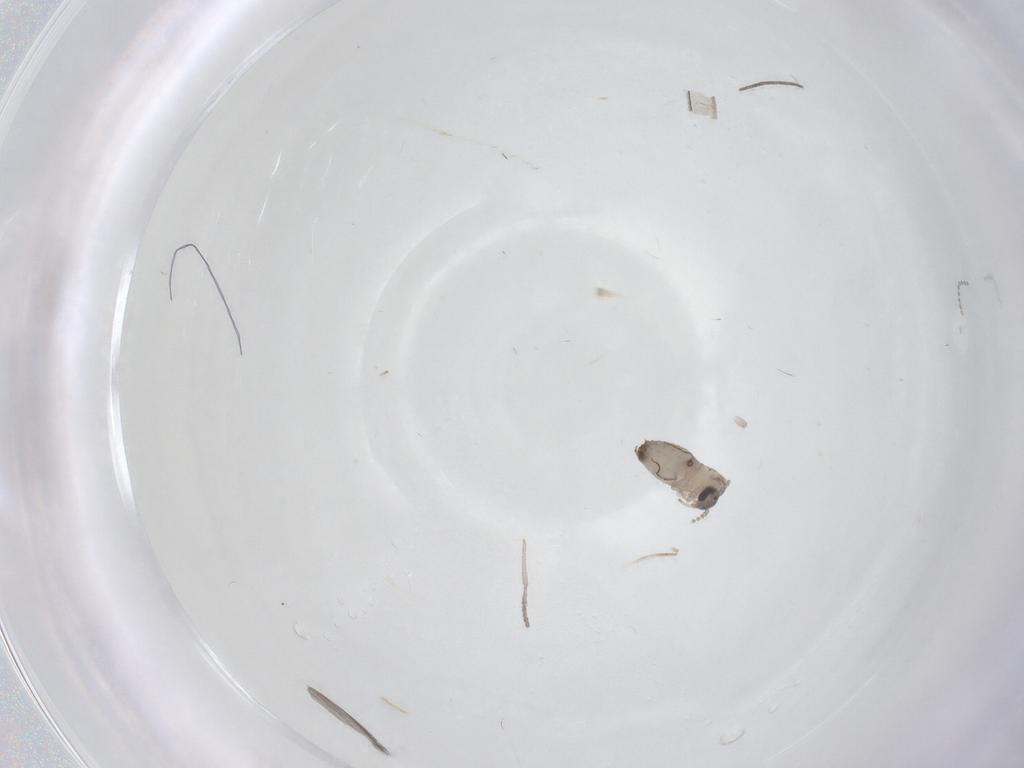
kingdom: Animalia
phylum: Arthropoda
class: Insecta
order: Diptera
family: Psychodidae
